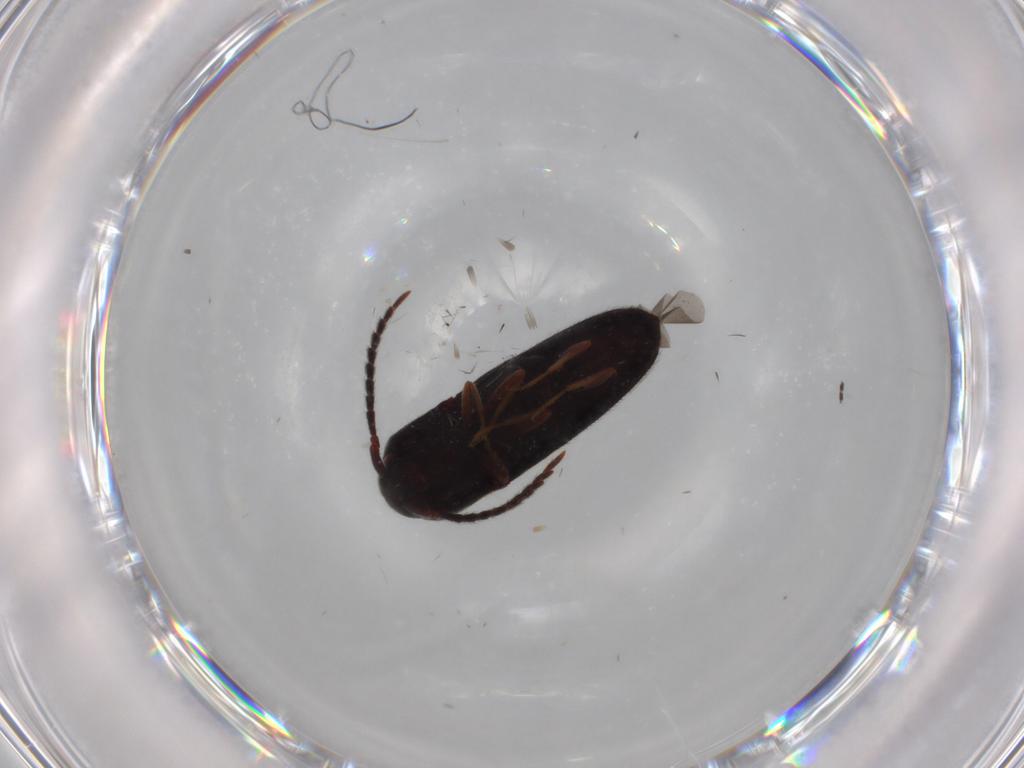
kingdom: Animalia
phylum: Arthropoda
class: Insecta
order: Coleoptera
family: Eucnemidae
